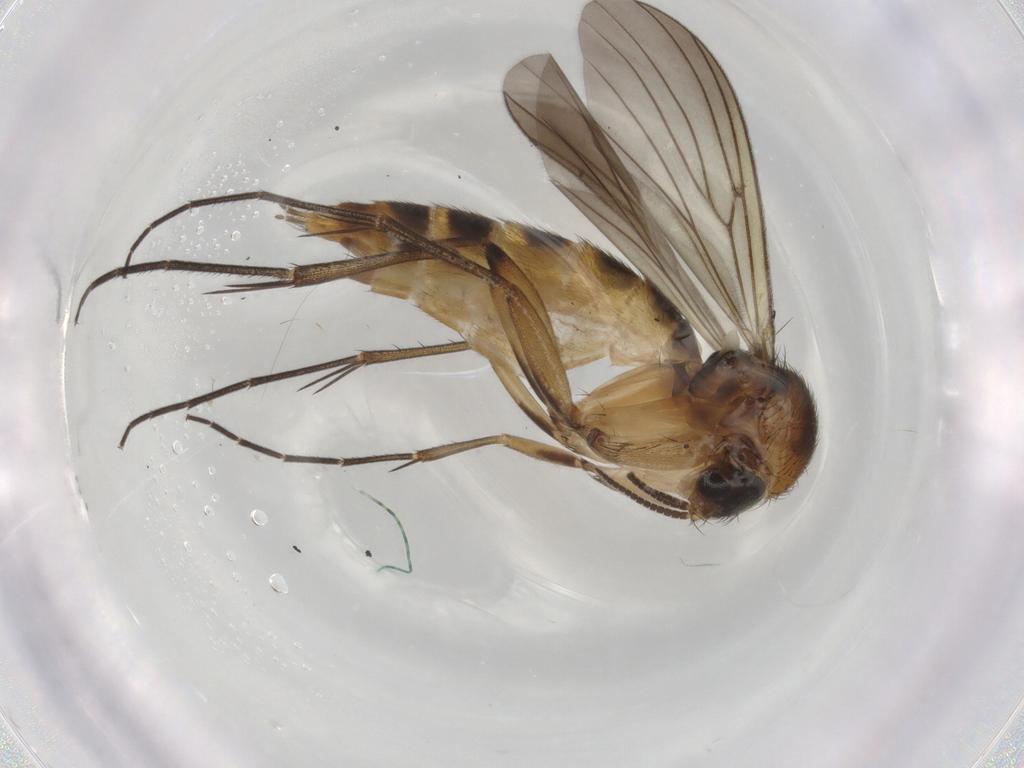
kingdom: Animalia
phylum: Arthropoda
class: Insecta
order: Diptera
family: Mycetophilidae
